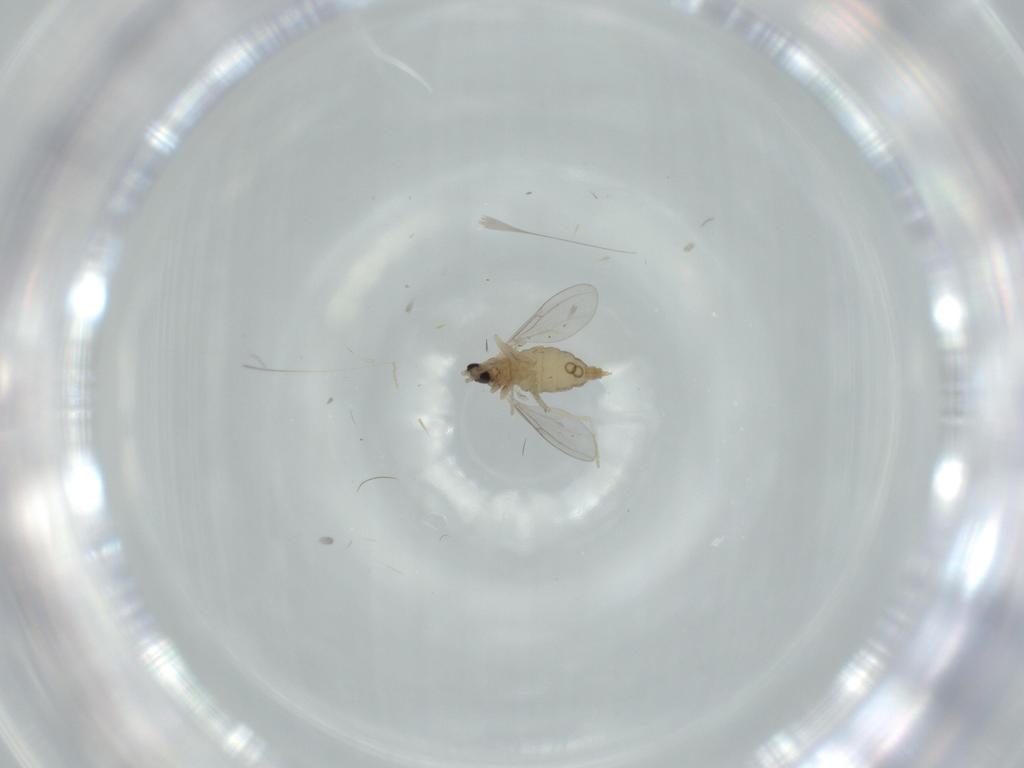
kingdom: Animalia
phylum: Arthropoda
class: Insecta
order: Diptera
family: Cecidomyiidae
